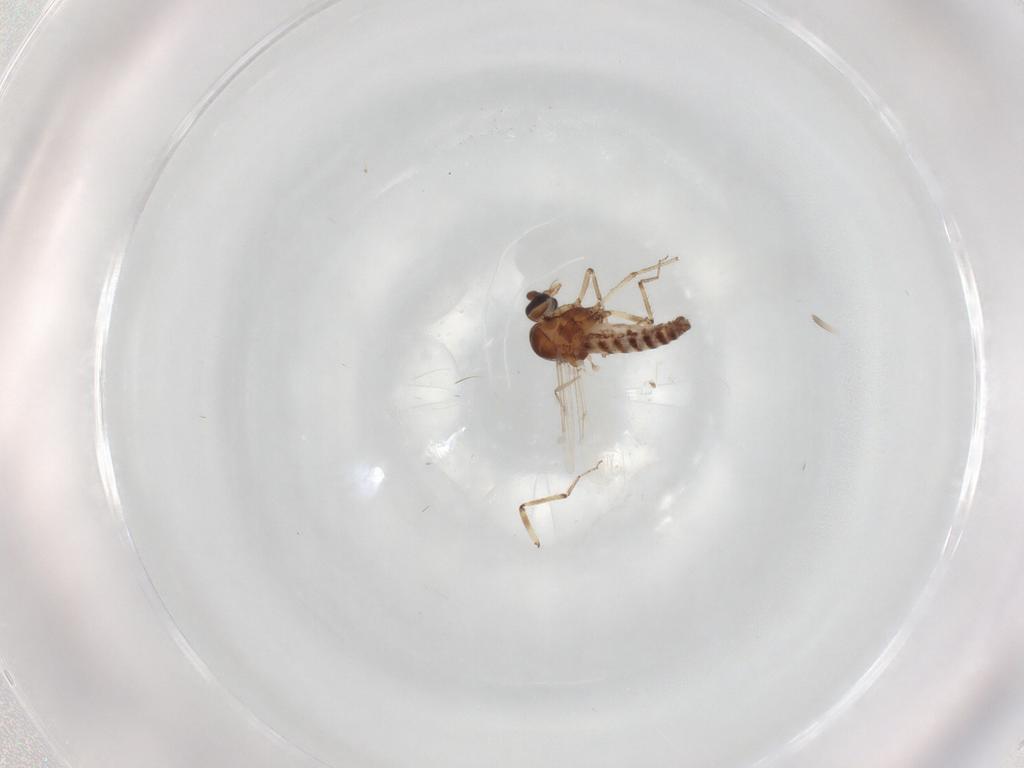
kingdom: Animalia
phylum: Arthropoda
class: Insecta
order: Diptera
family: Ceratopogonidae
